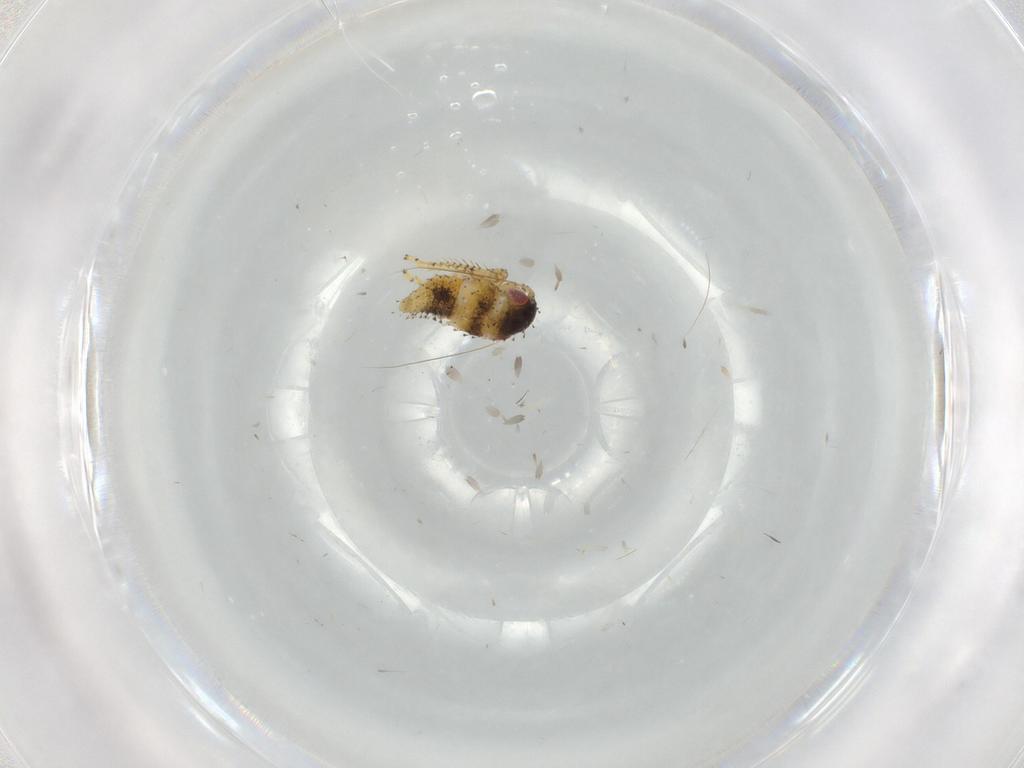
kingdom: Animalia
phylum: Arthropoda
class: Insecta
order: Hemiptera
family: Cicadellidae
